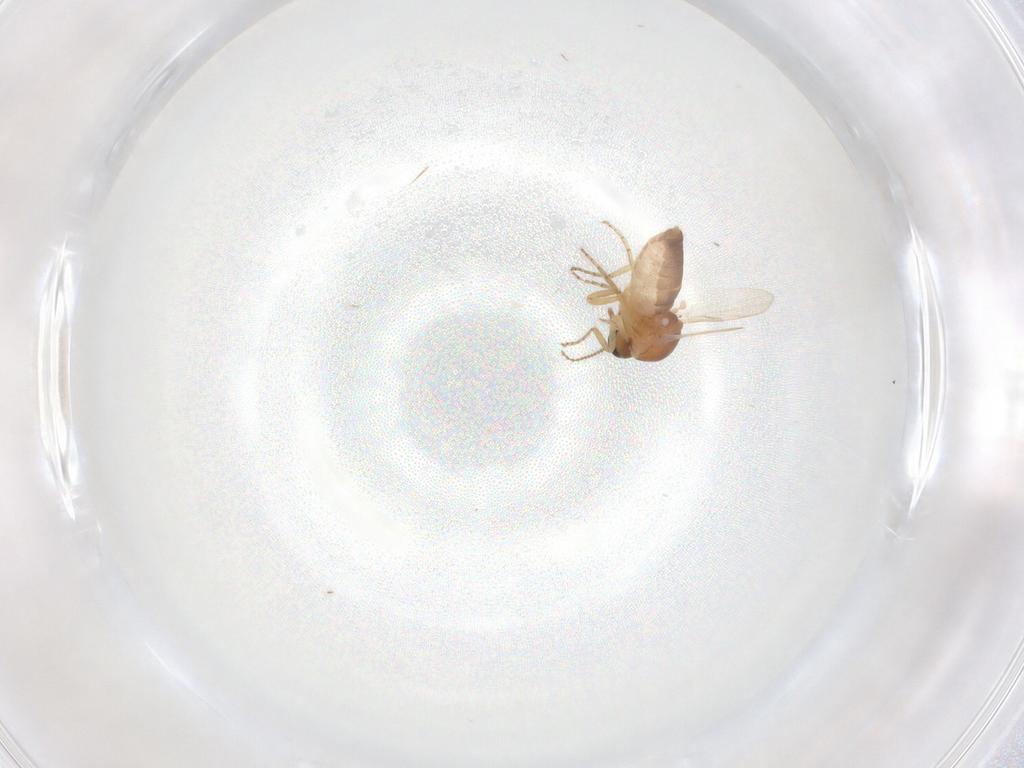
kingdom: Animalia
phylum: Arthropoda
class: Insecta
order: Diptera
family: Ceratopogonidae
